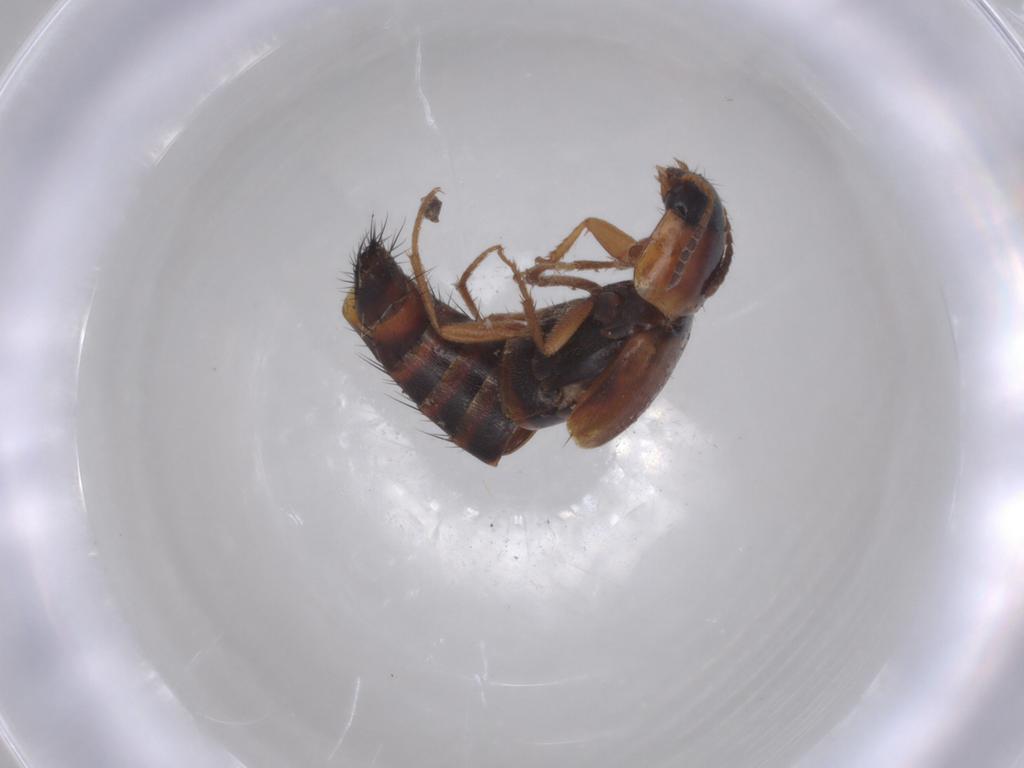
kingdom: Animalia
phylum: Arthropoda
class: Insecta
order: Coleoptera
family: Staphylinidae
